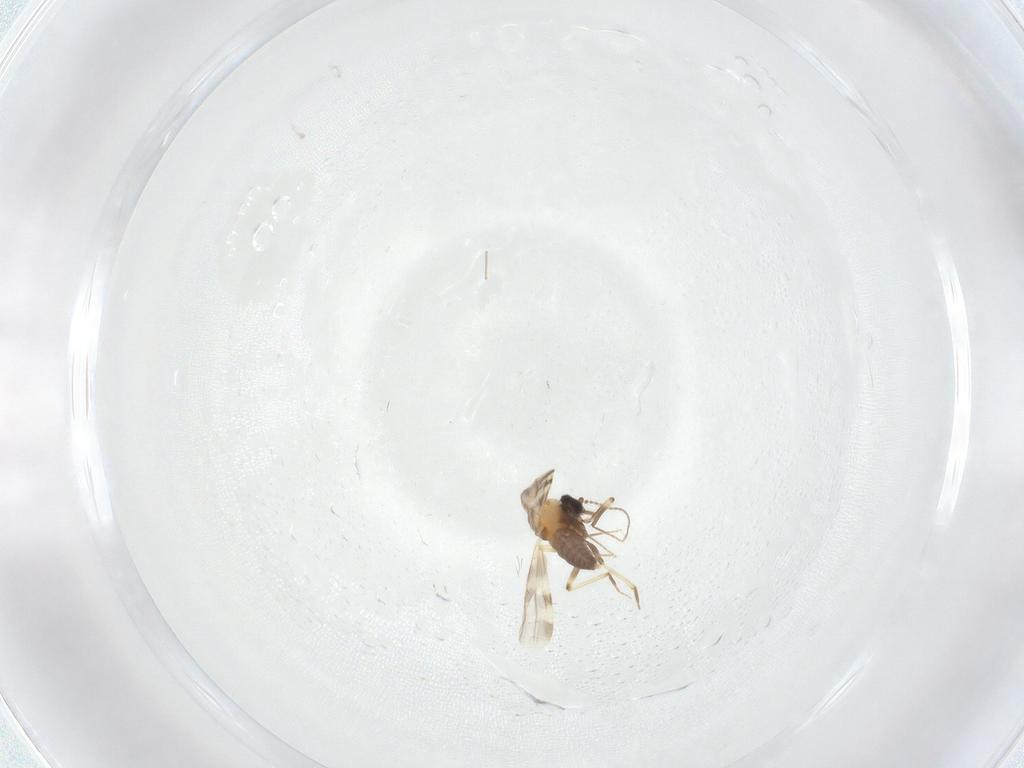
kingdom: Animalia
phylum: Arthropoda
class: Insecta
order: Diptera
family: Ceratopogonidae
